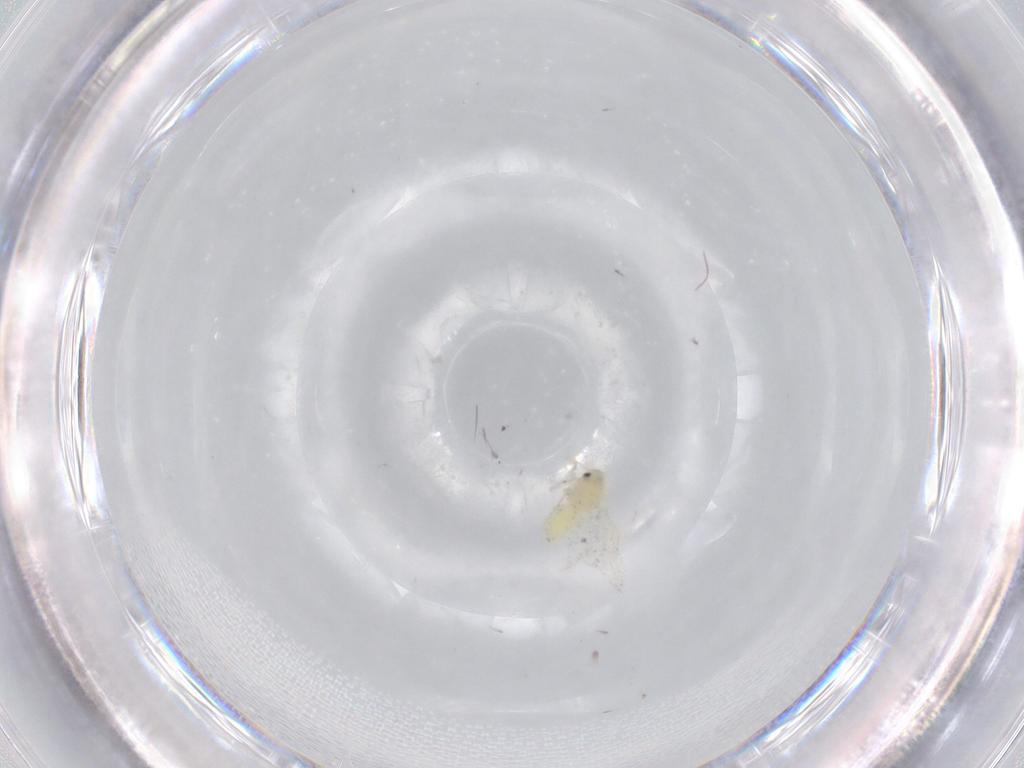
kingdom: Animalia
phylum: Arthropoda
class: Insecta
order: Hemiptera
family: Aleyrodidae
